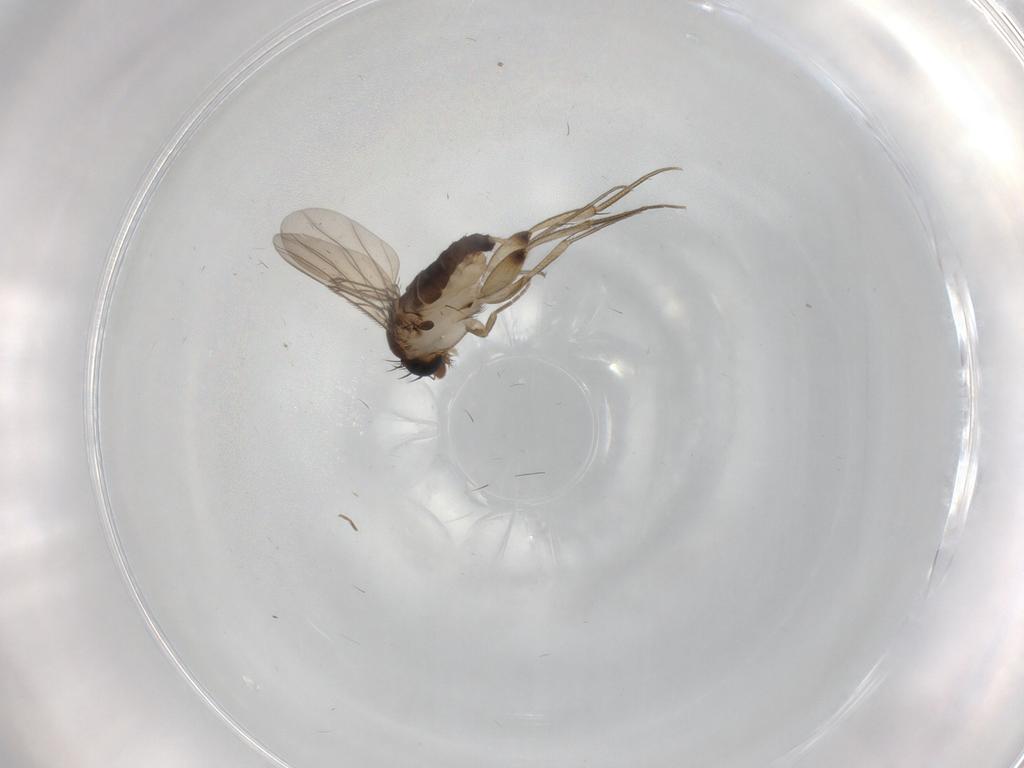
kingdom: Animalia
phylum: Arthropoda
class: Insecta
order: Diptera
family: Phoridae
